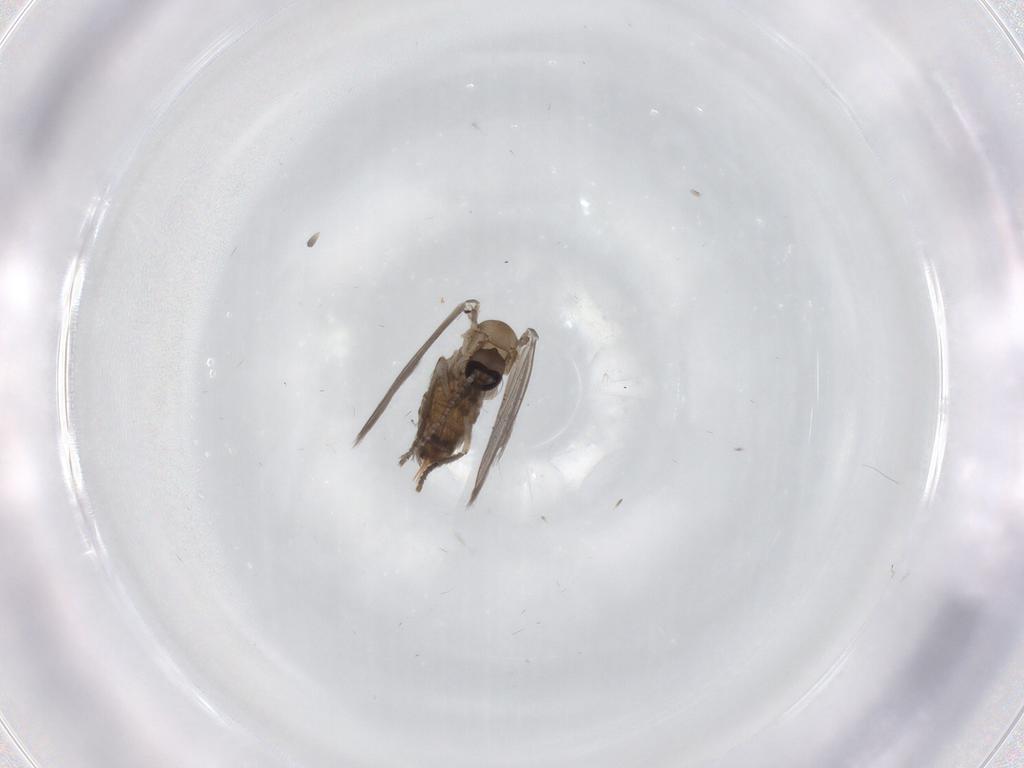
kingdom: Animalia
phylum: Arthropoda
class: Insecta
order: Diptera
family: Psychodidae
